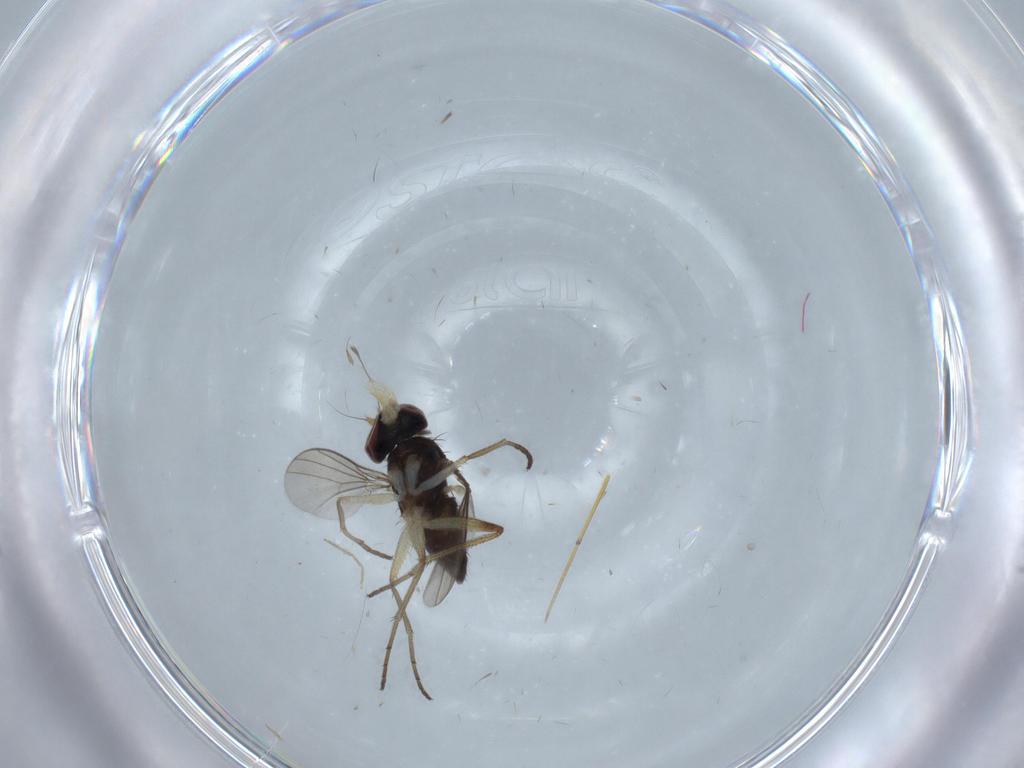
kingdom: Animalia
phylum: Arthropoda
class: Insecta
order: Diptera
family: Dolichopodidae
